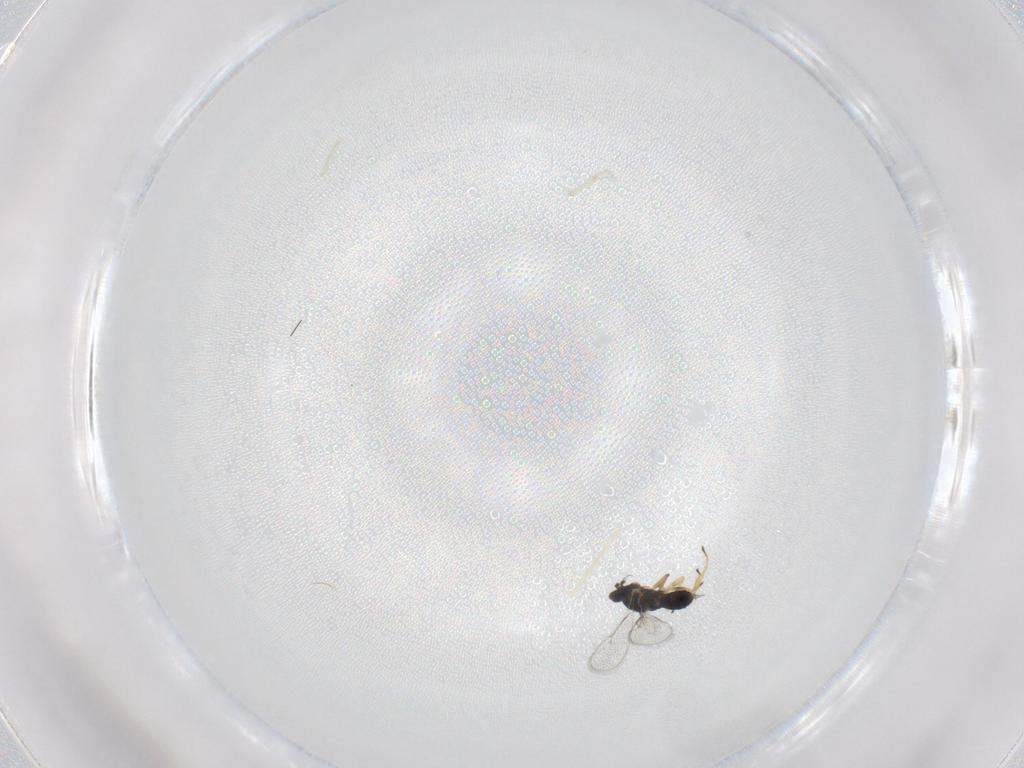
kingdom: Animalia
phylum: Arthropoda
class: Insecta
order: Hymenoptera
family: Eulophidae
